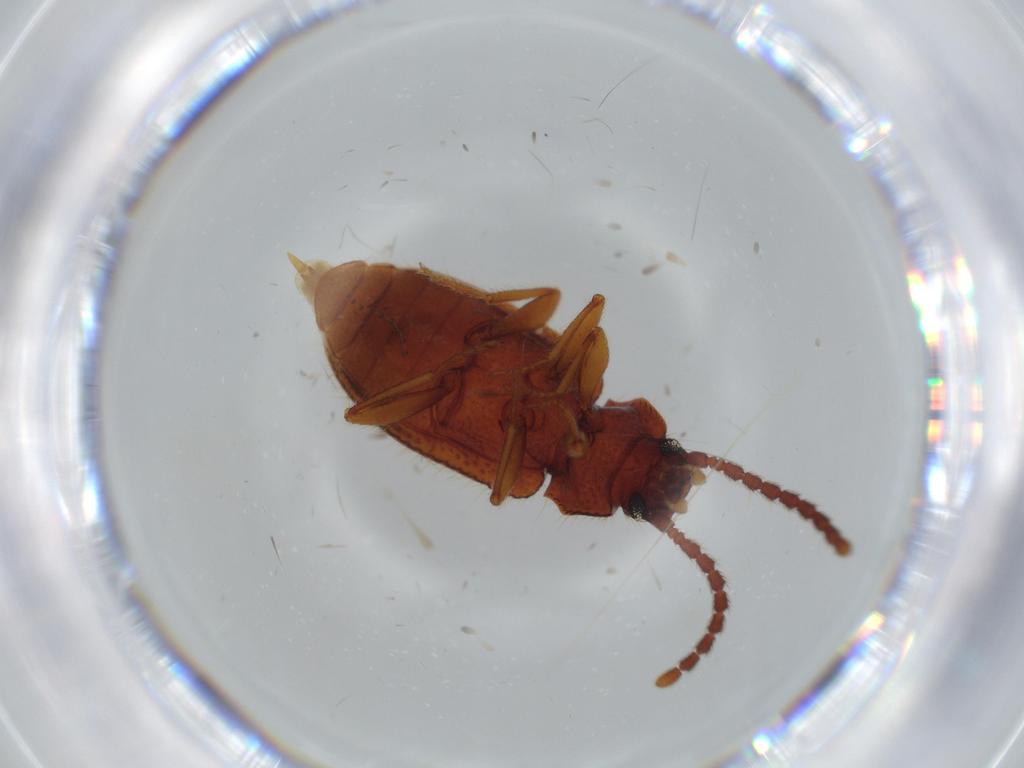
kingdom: Animalia
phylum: Arthropoda
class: Insecta
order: Coleoptera
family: Tenebrionidae
